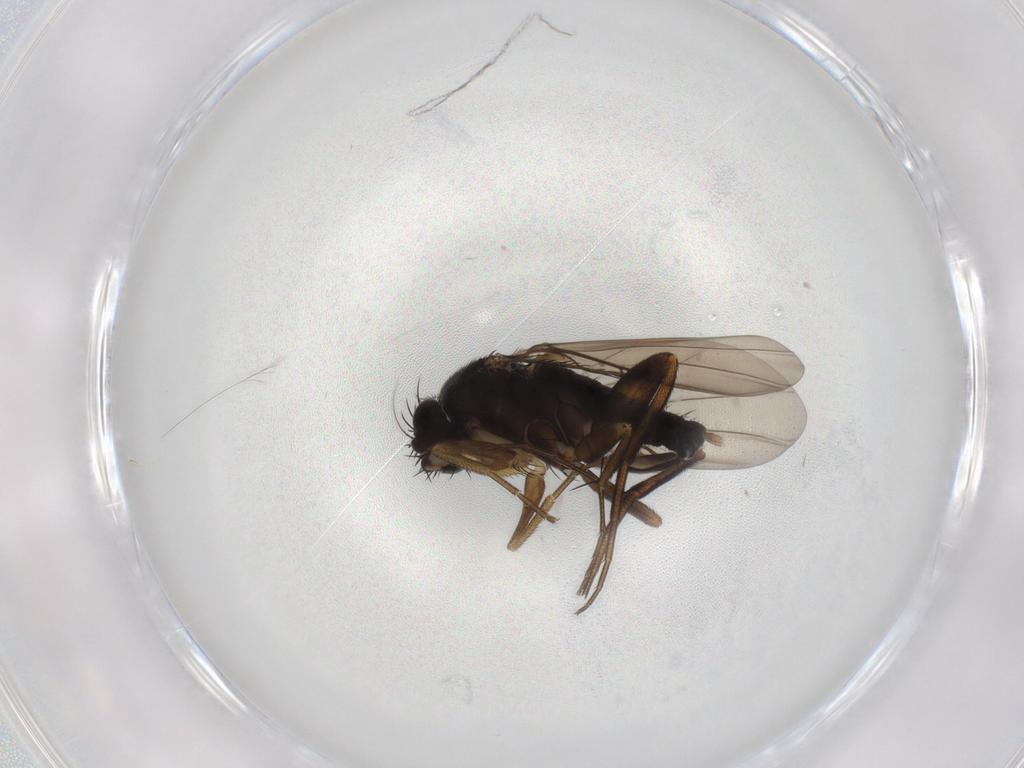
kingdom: Animalia
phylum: Arthropoda
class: Insecta
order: Diptera
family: Phoridae
